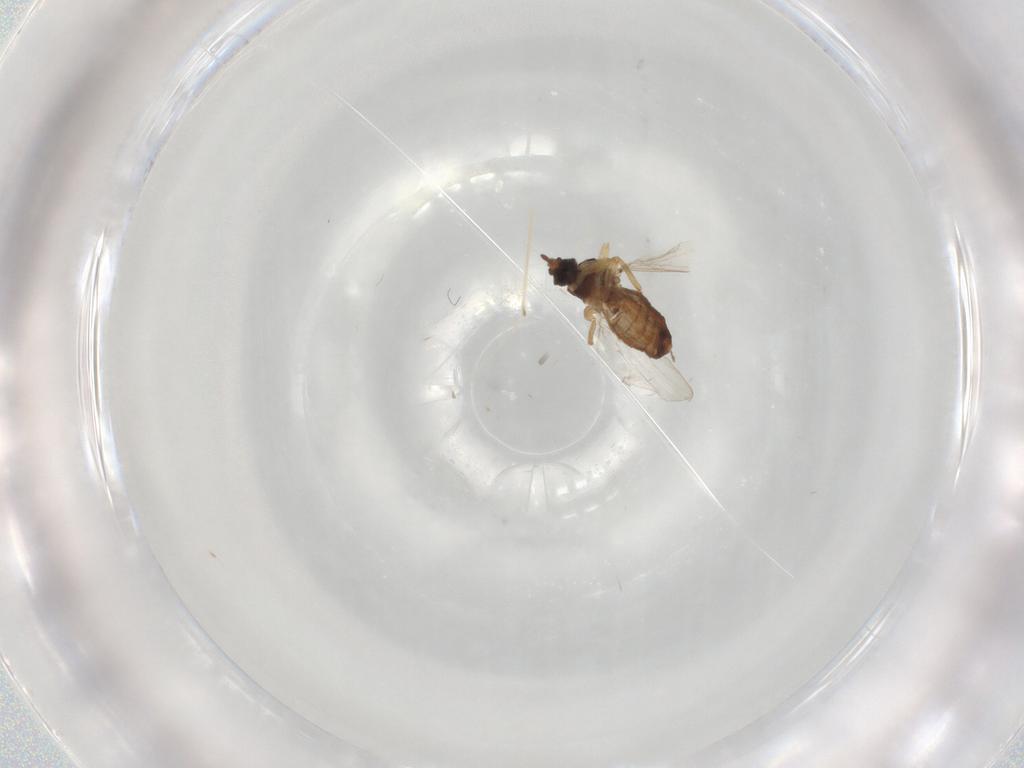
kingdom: Animalia
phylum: Arthropoda
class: Insecta
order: Diptera
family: Ceratopogonidae
